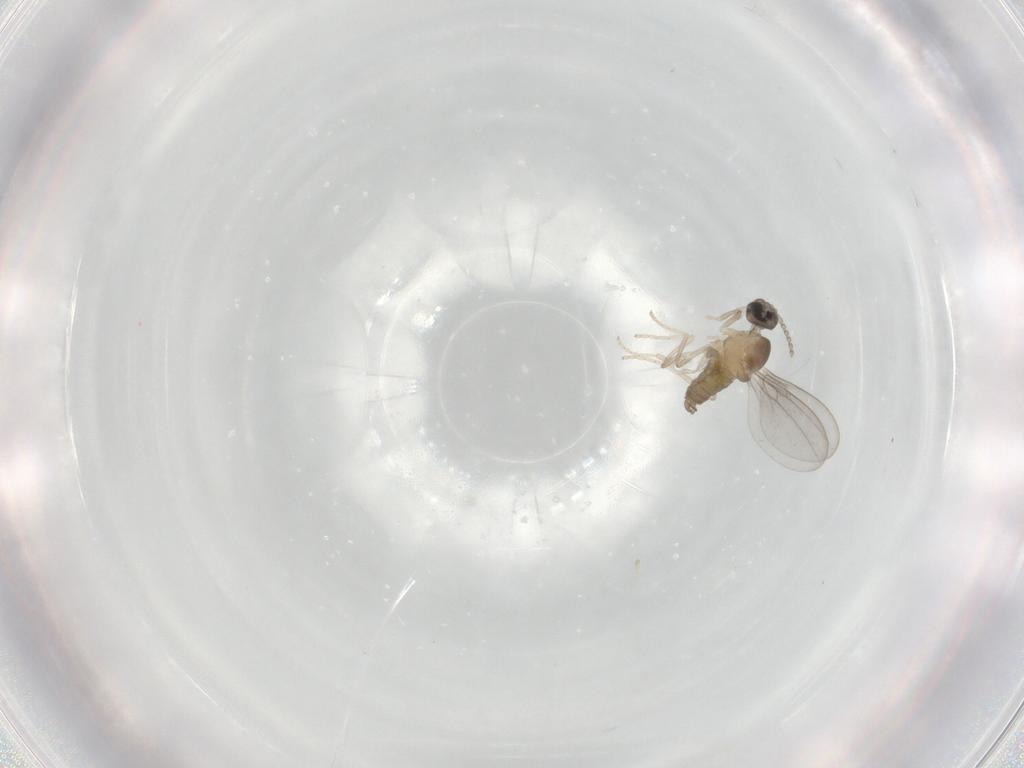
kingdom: Animalia
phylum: Arthropoda
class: Insecta
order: Diptera
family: Cecidomyiidae
